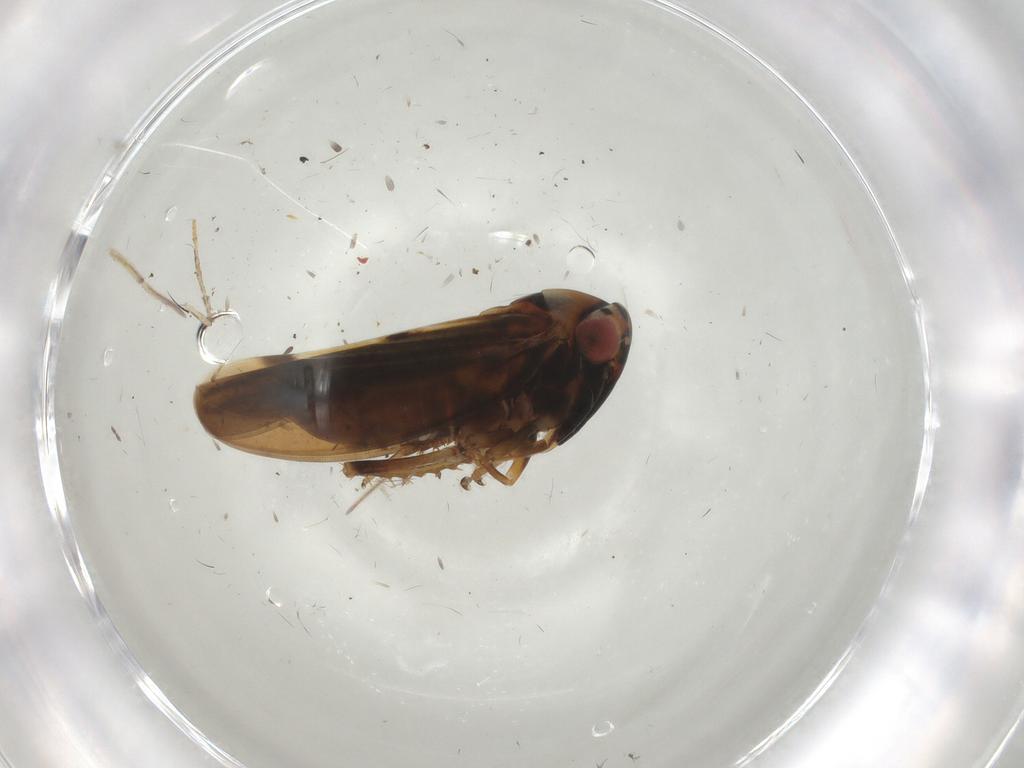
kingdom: Animalia
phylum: Arthropoda
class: Insecta
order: Hemiptera
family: Cicadellidae
